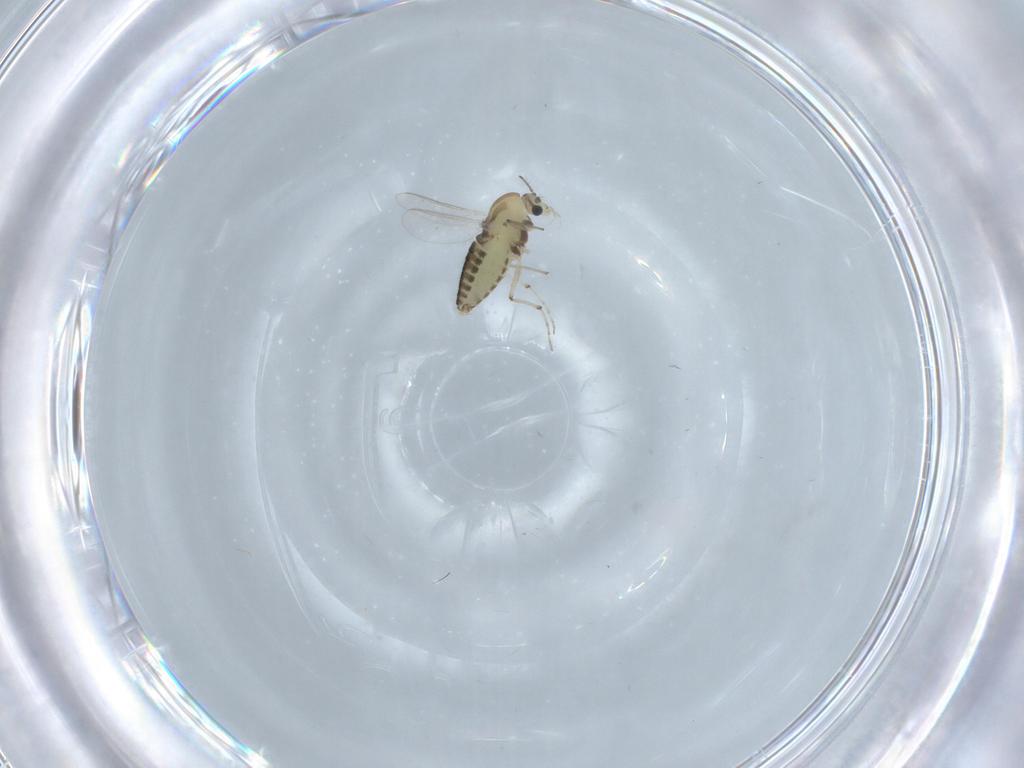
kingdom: Animalia
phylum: Arthropoda
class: Insecta
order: Diptera
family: Chironomidae
